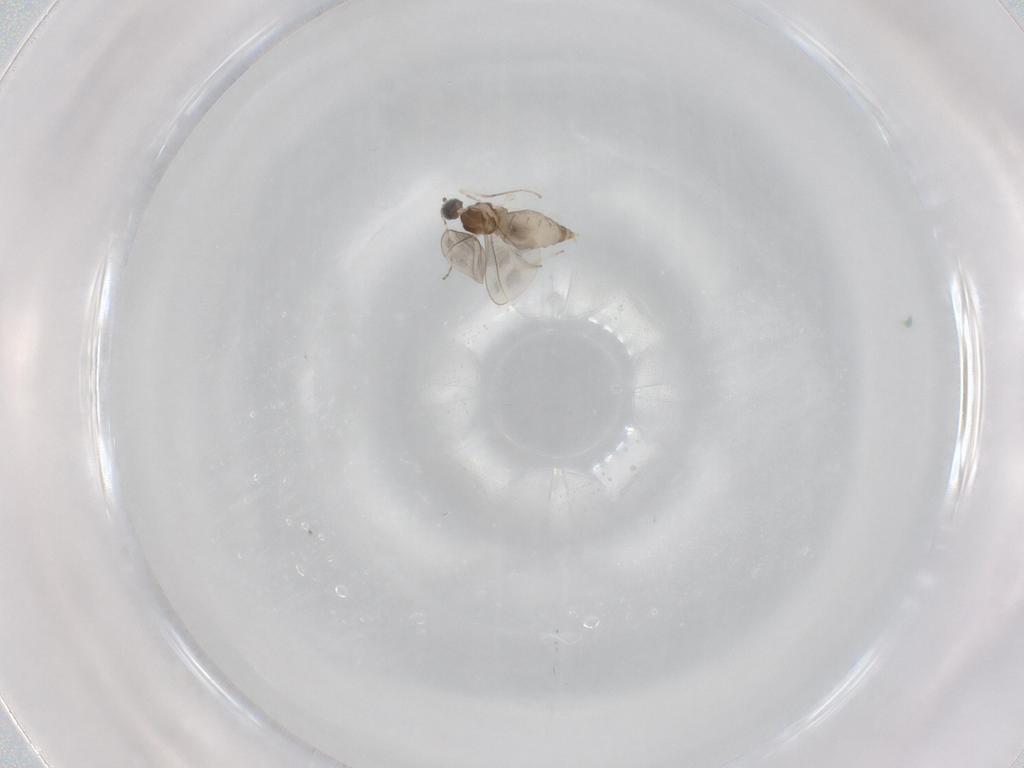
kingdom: Animalia
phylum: Arthropoda
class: Insecta
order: Diptera
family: Cecidomyiidae
